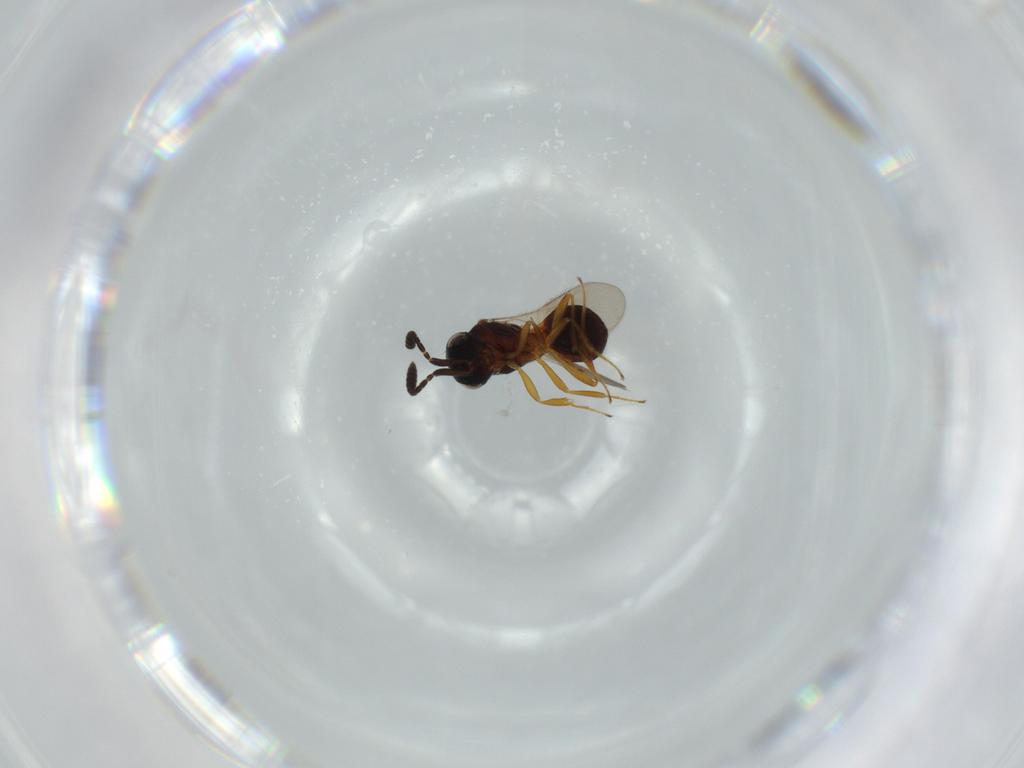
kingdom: Animalia
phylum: Arthropoda
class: Insecta
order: Hymenoptera
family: Scelionidae
